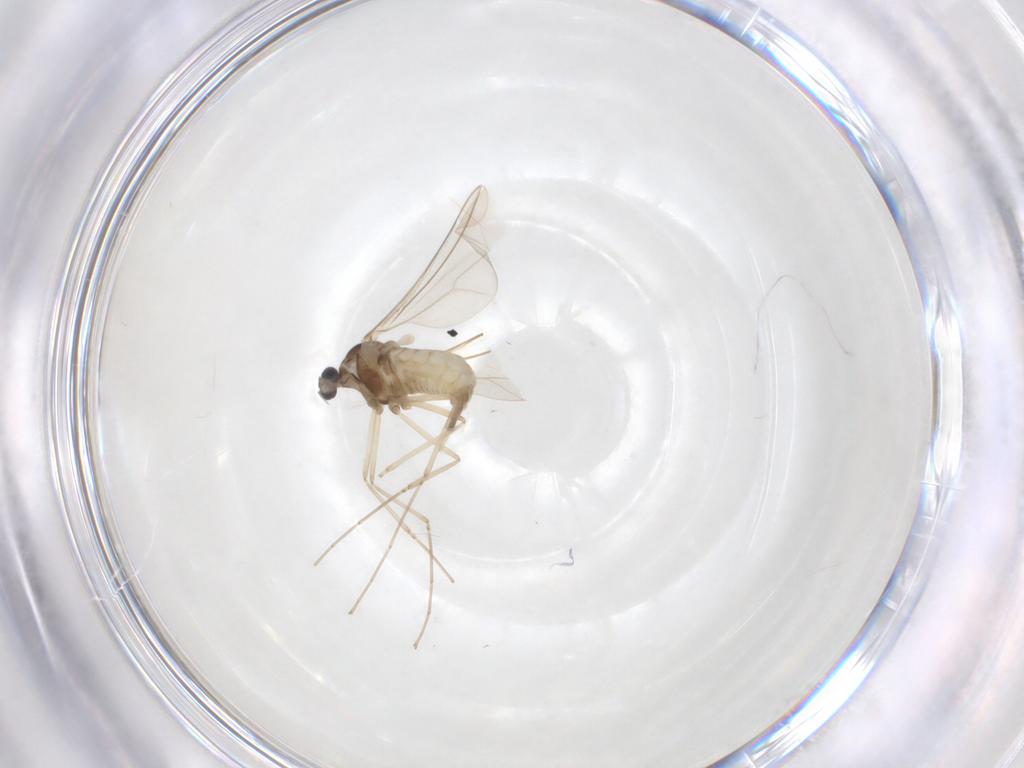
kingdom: Animalia
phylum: Arthropoda
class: Insecta
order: Diptera
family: Cecidomyiidae
